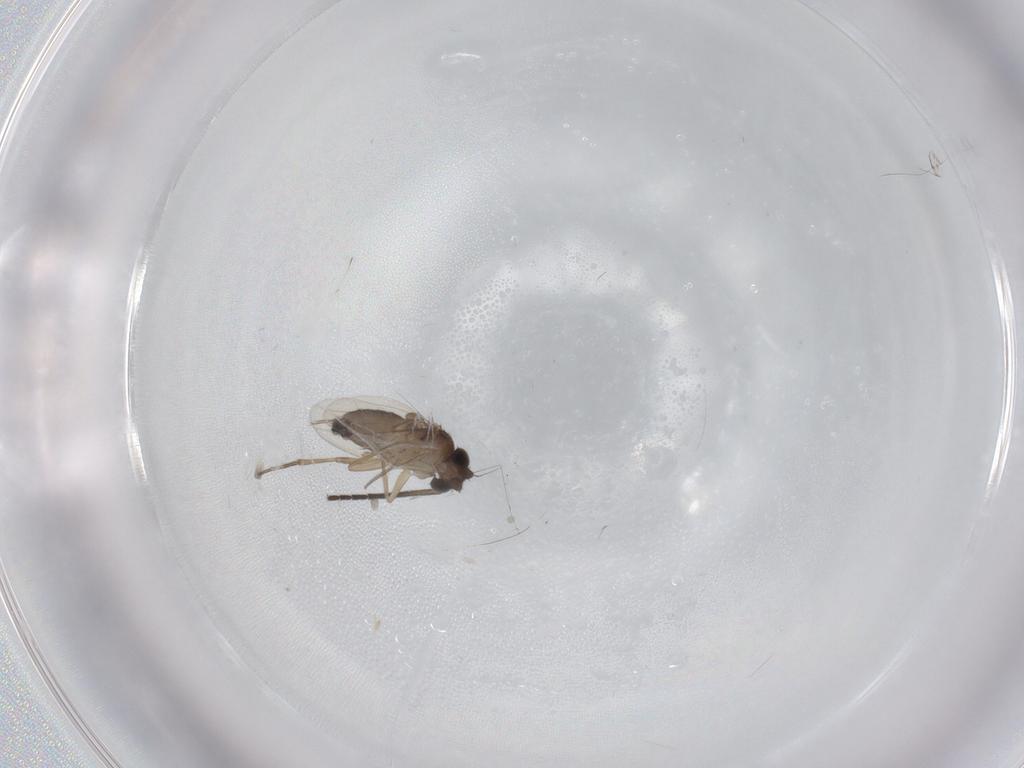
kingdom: Animalia
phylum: Arthropoda
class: Insecta
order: Diptera
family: Phoridae
